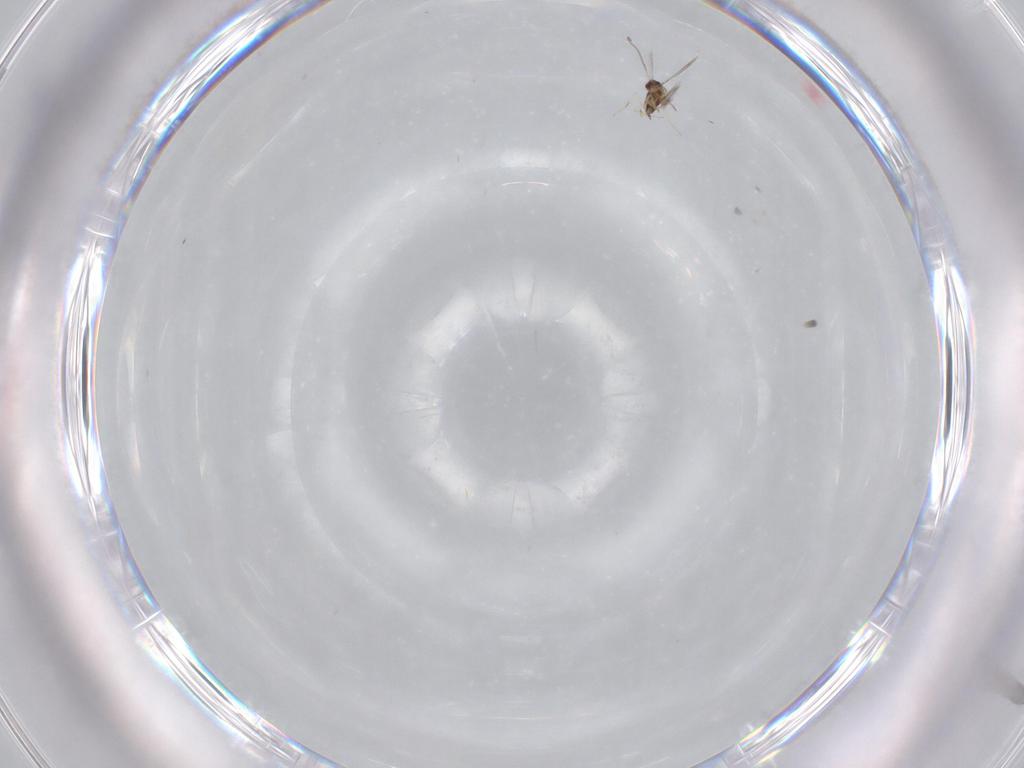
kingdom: Animalia
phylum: Arthropoda
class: Insecta
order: Hymenoptera
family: Mymaridae
